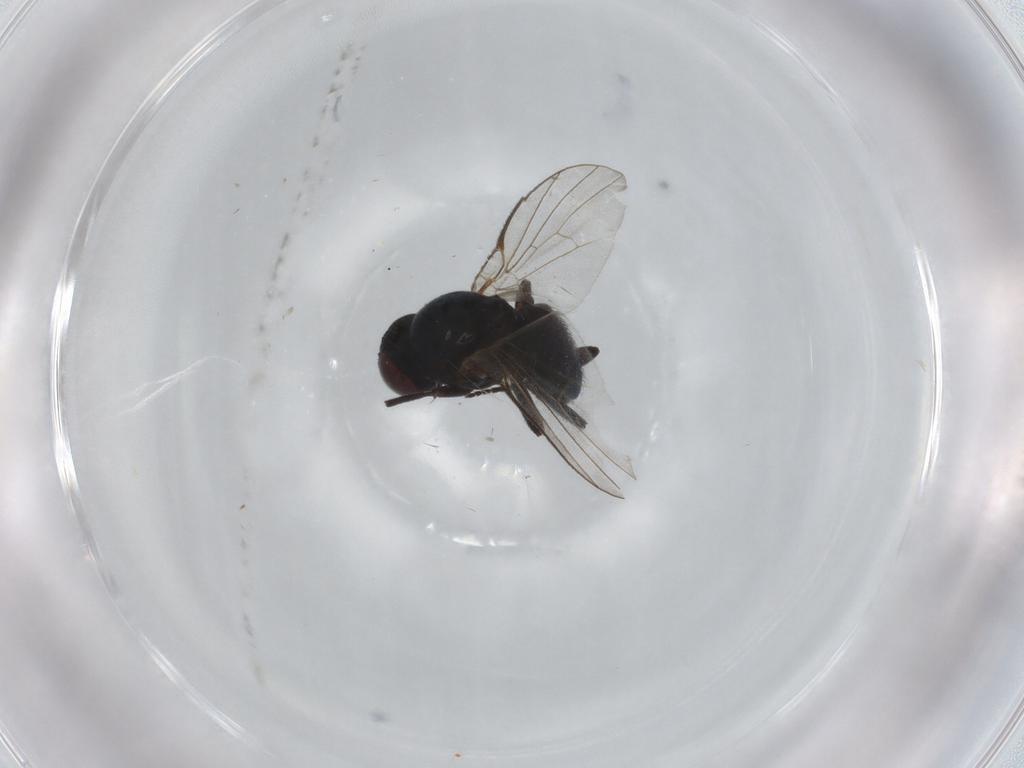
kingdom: Animalia
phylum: Arthropoda
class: Insecta
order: Diptera
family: Agromyzidae
